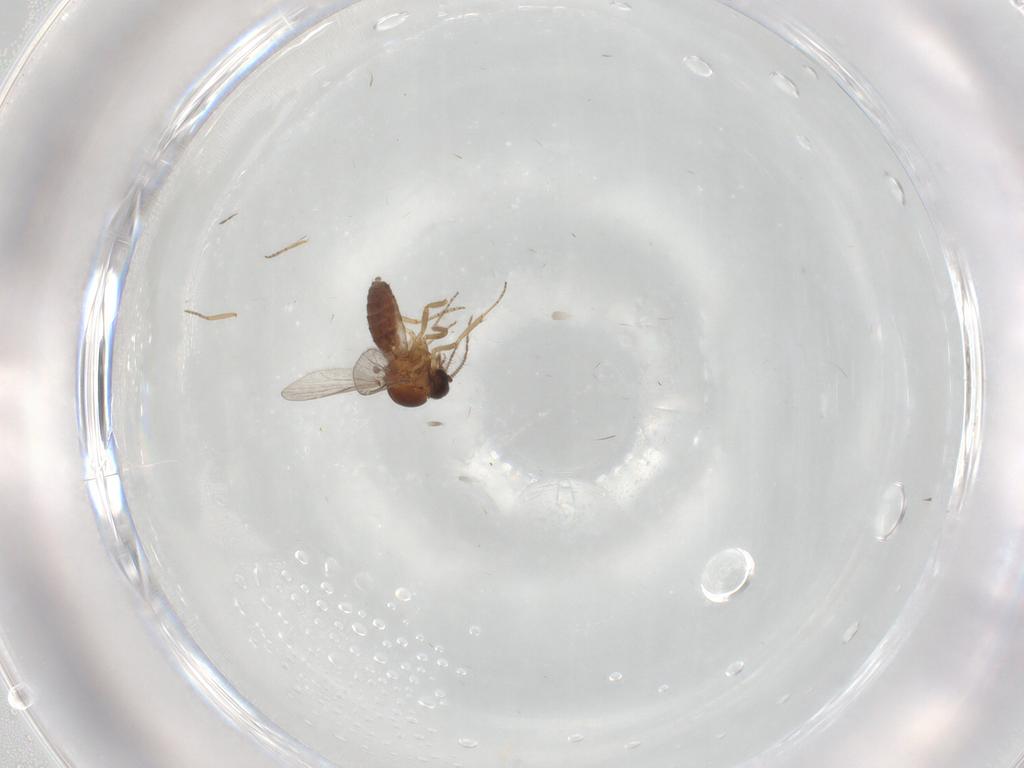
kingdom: Animalia
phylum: Arthropoda
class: Insecta
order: Diptera
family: Ceratopogonidae
